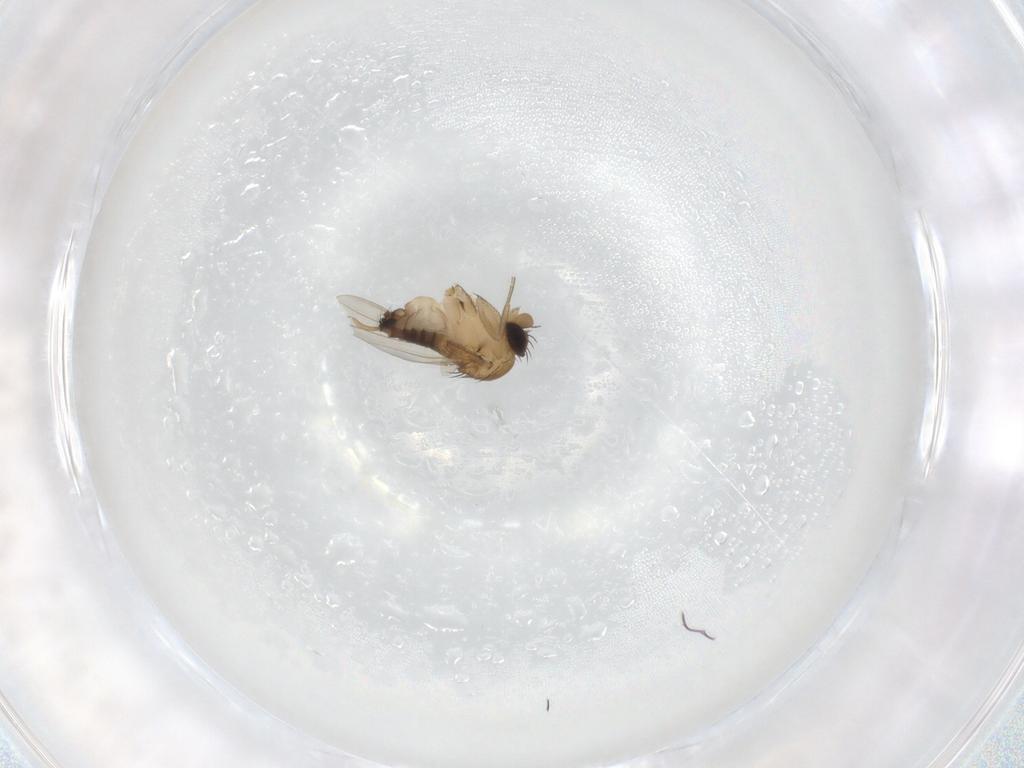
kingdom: Animalia
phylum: Arthropoda
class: Insecta
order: Diptera
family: Phoridae
